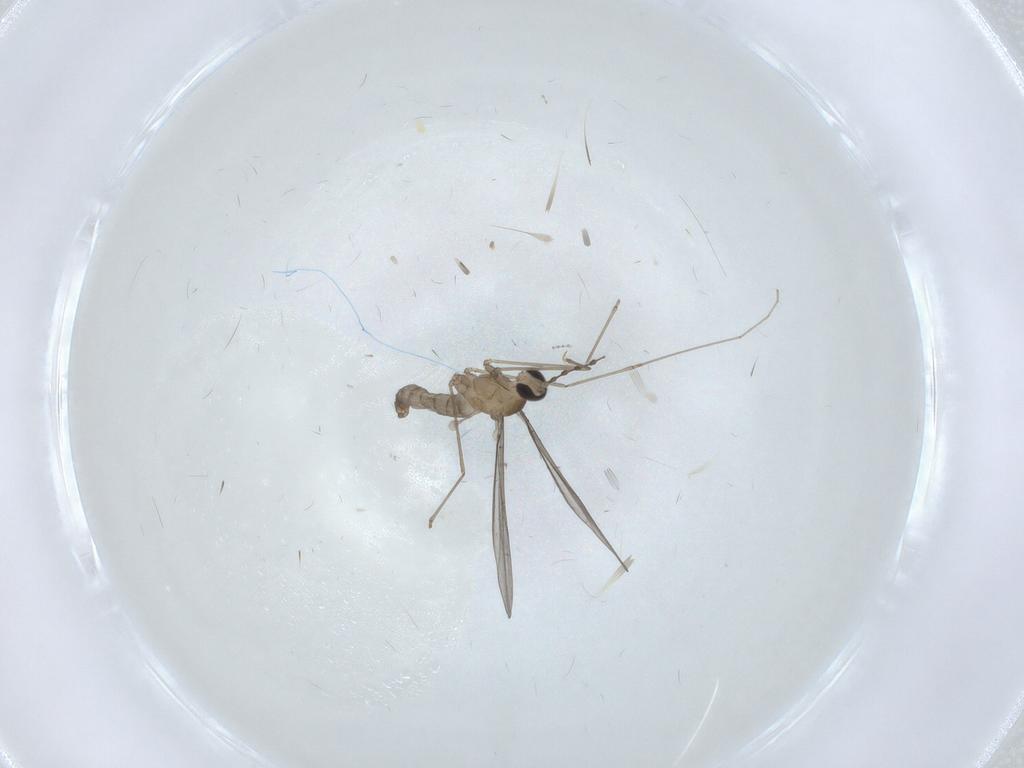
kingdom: Animalia
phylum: Arthropoda
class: Insecta
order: Diptera
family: Cecidomyiidae
